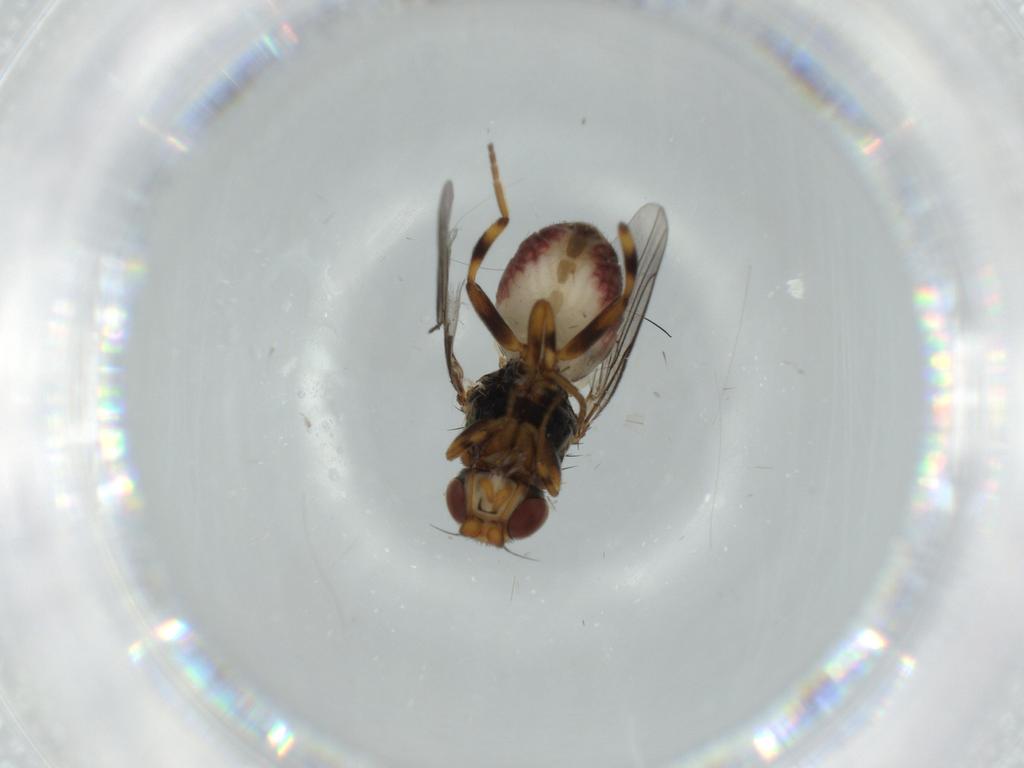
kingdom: Animalia
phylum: Arthropoda
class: Insecta
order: Diptera
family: Chloropidae
